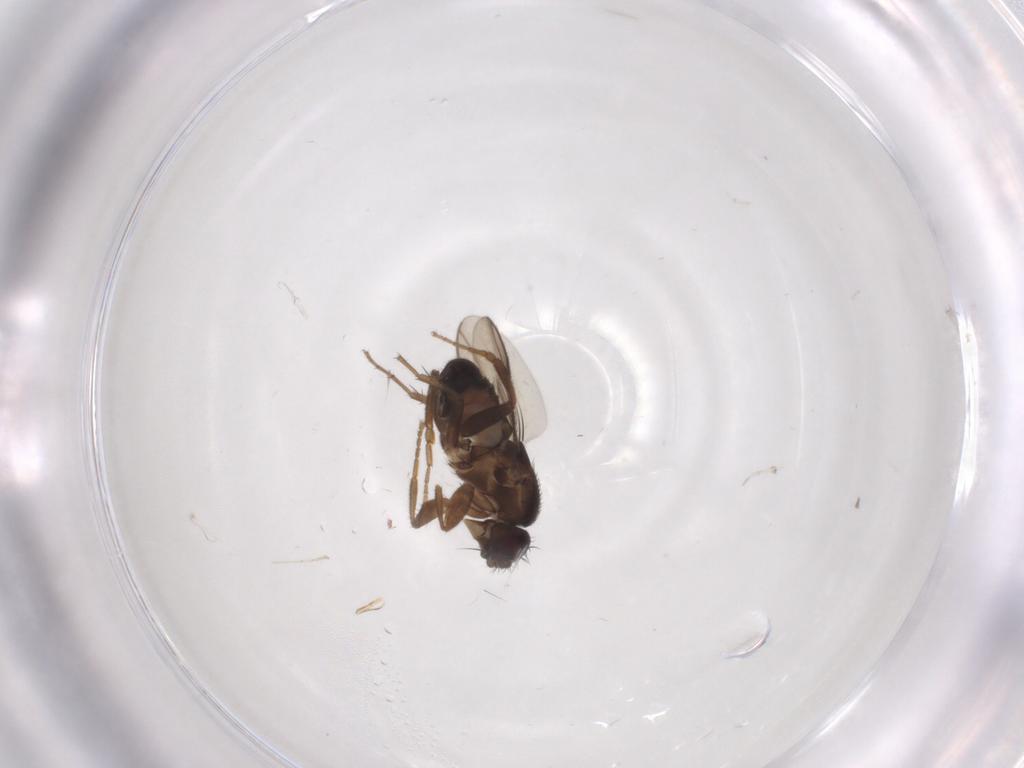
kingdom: Animalia
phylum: Arthropoda
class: Insecta
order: Diptera
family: Sphaeroceridae
